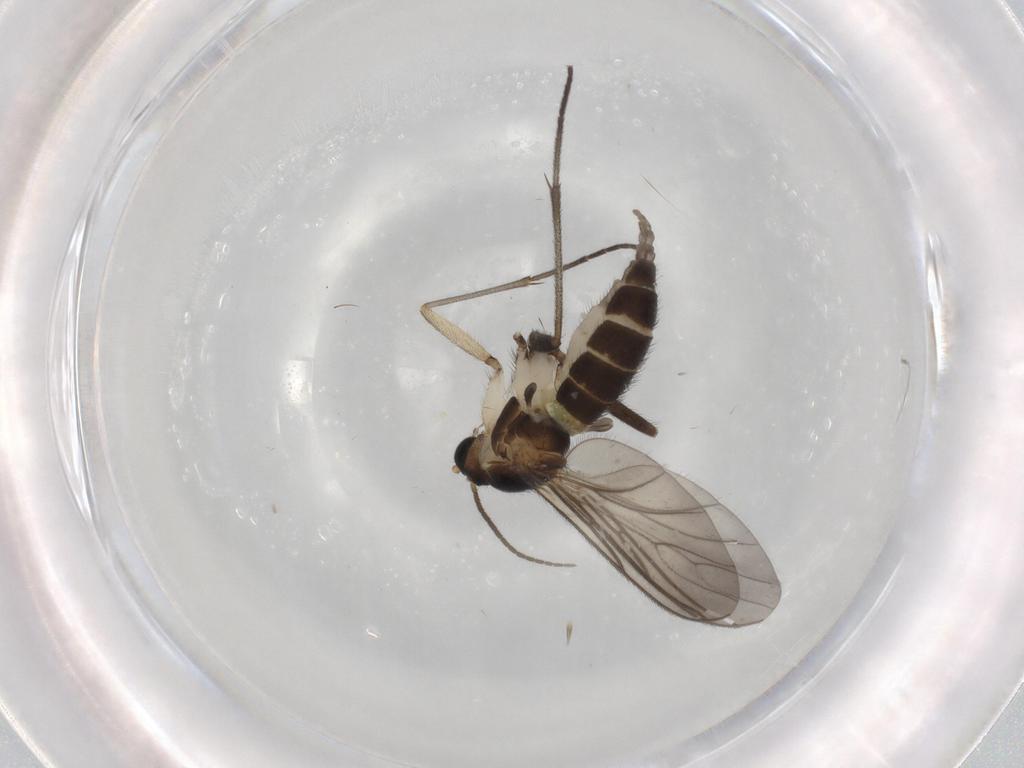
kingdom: Animalia
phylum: Arthropoda
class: Insecta
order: Diptera
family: Sciaridae
